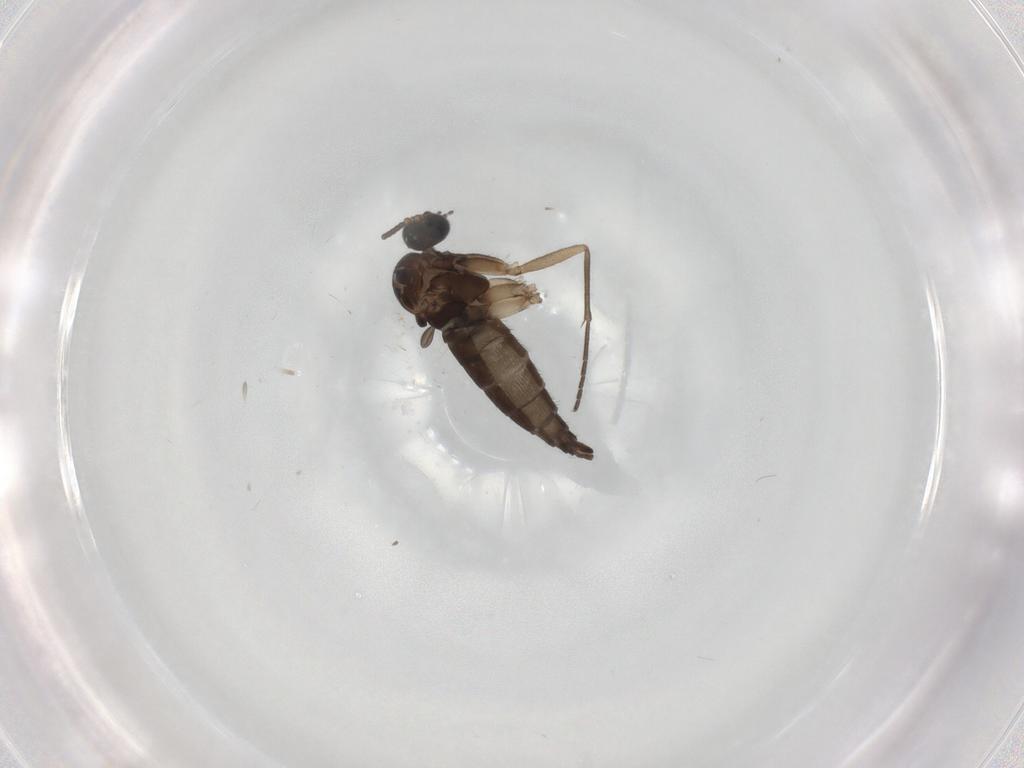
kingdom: Animalia
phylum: Arthropoda
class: Insecta
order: Diptera
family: Sciaridae
